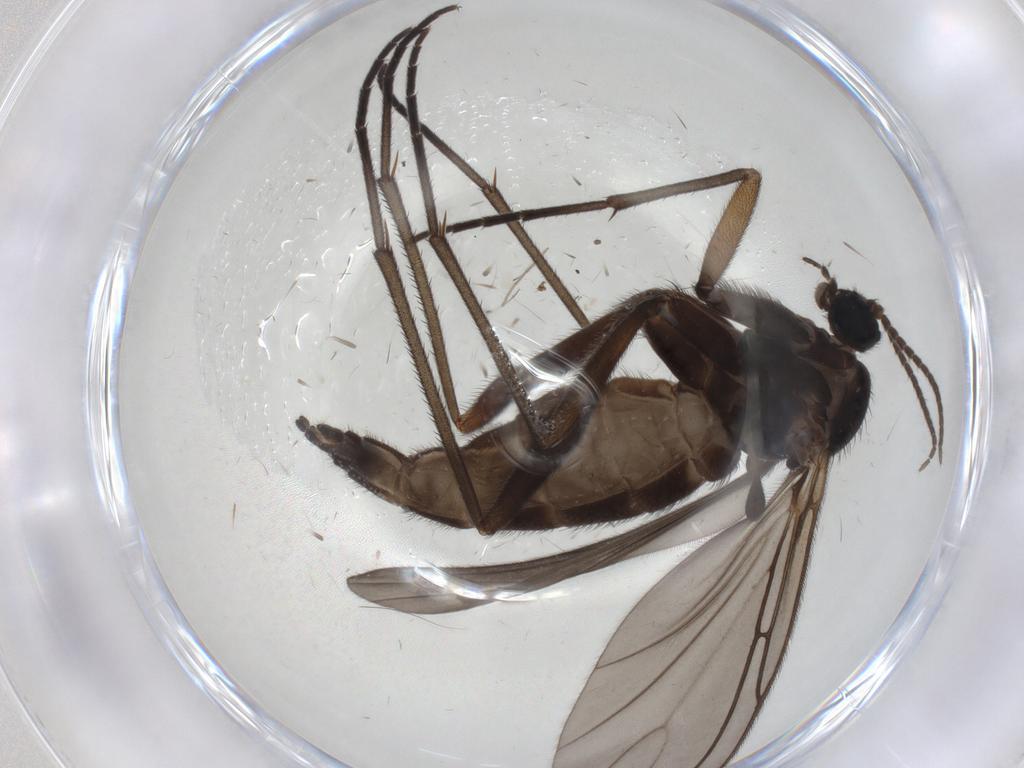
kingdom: Animalia
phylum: Arthropoda
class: Insecta
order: Diptera
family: Sciaridae
